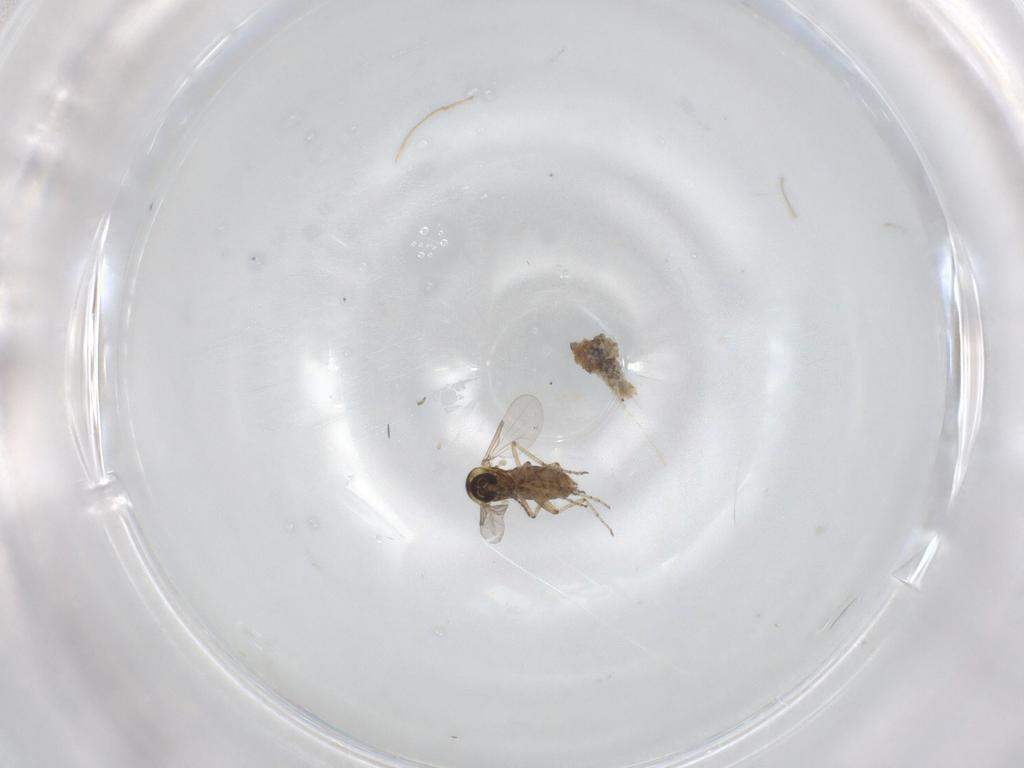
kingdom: Animalia
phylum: Arthropoda
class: Insecta
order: Diptera
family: Ceratopogonidae
